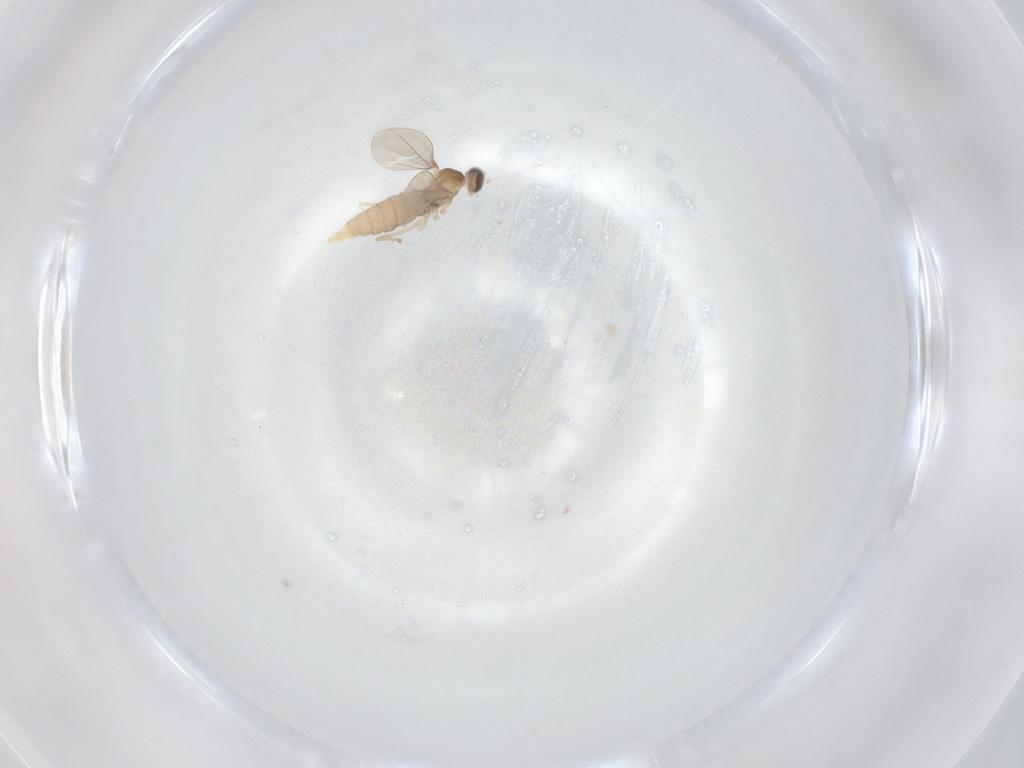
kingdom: Animalia
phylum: Arthropoda
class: Insecta
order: Diptera
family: Cecidomyiidae
